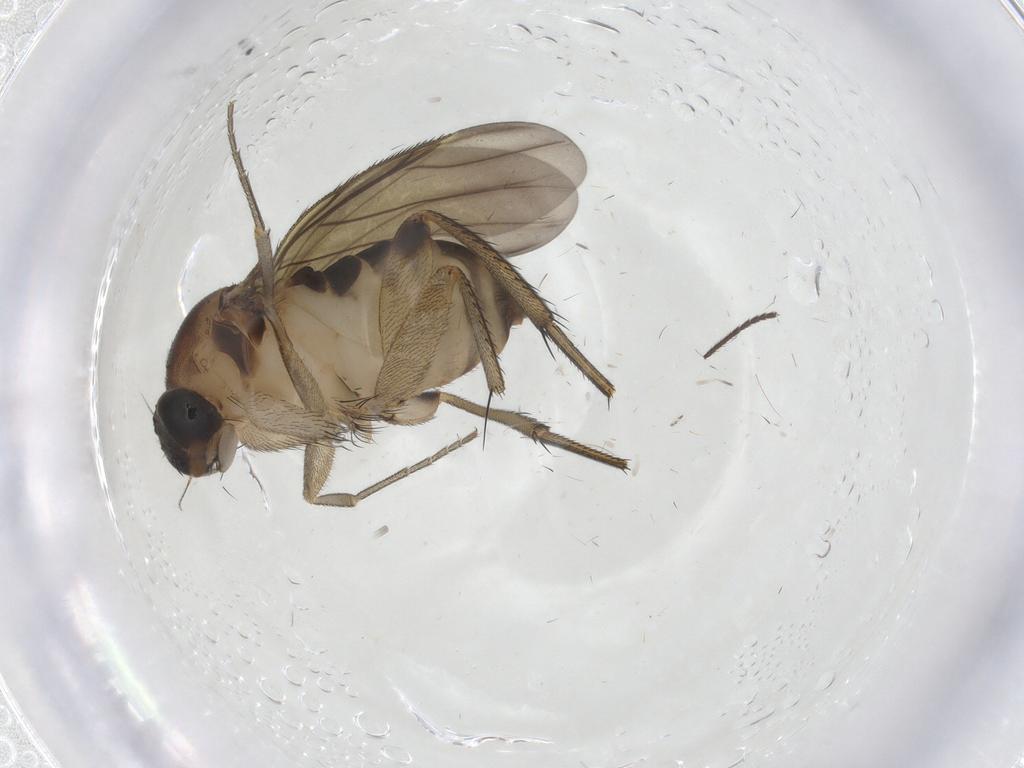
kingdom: Animalia
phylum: Arthropoda
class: Insecta
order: Diptera
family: Phoridae
